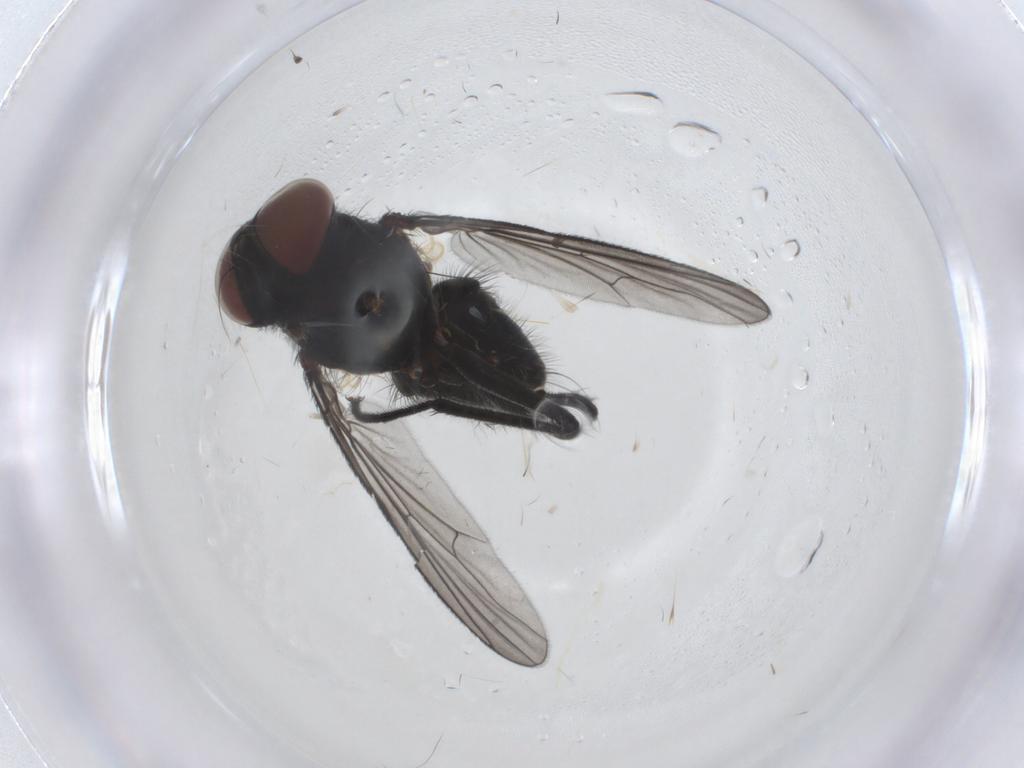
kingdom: Animalia
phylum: Arthropoda
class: Insecta
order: Diptera
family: Muscidae
